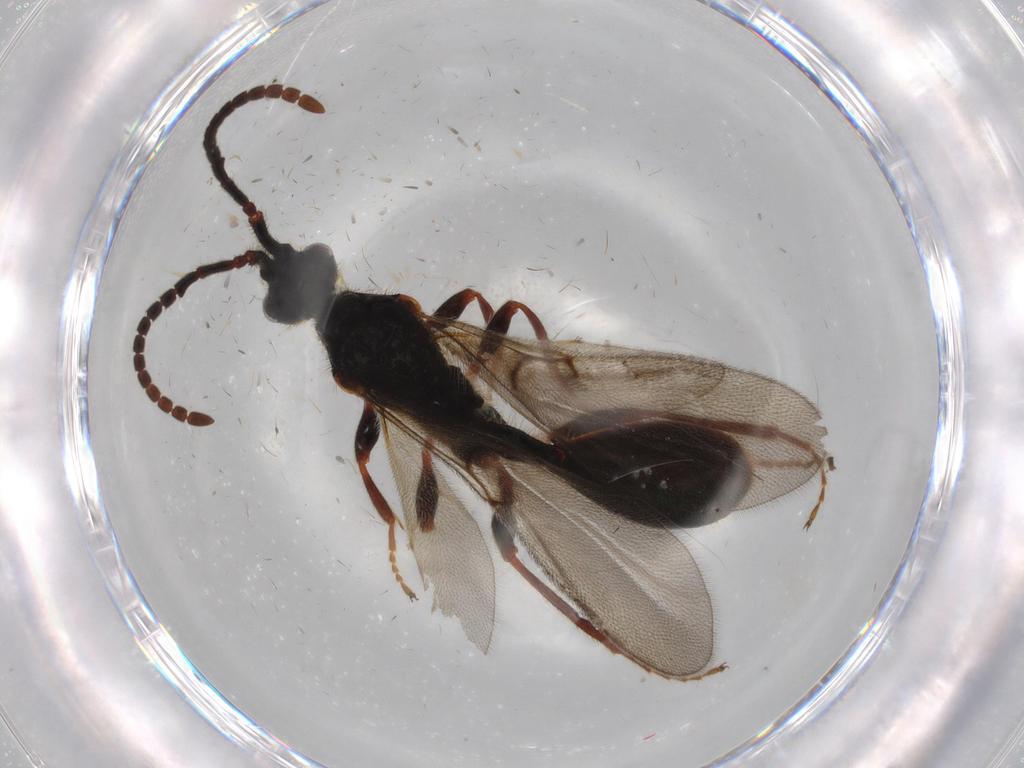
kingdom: Animalia
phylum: Arthropoda
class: Insecta
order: Hymenoptera
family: Diapriidae
